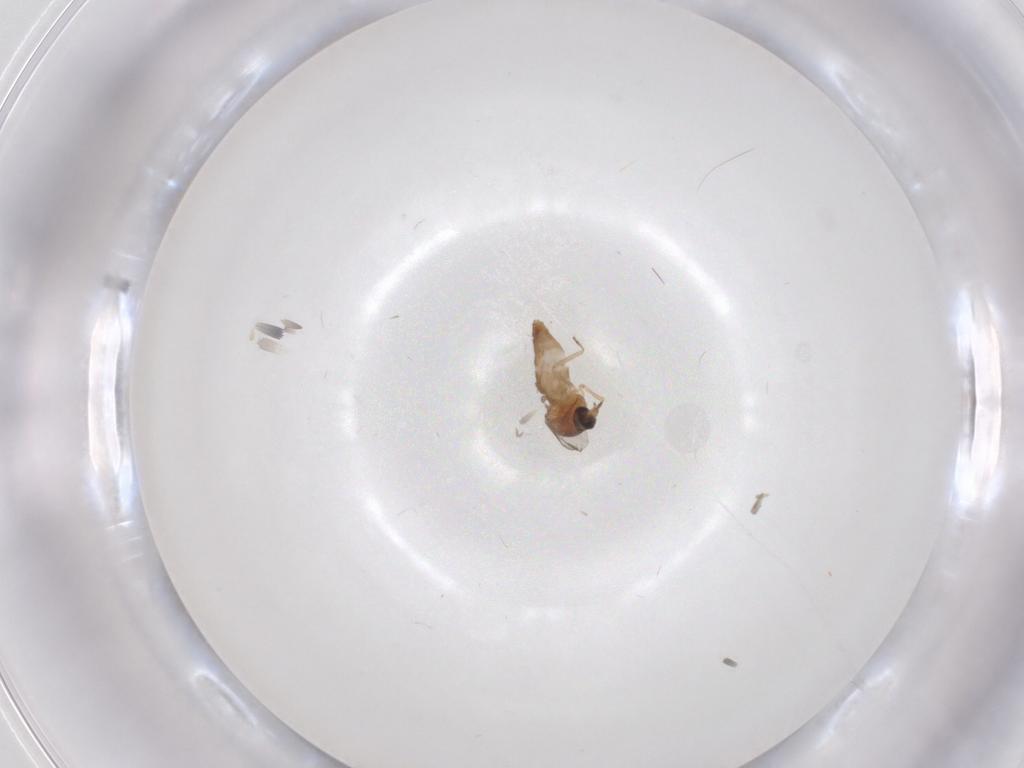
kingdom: Animalia
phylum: Arthropoda
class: Insecta
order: Diptera
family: Ceratopogonidae
